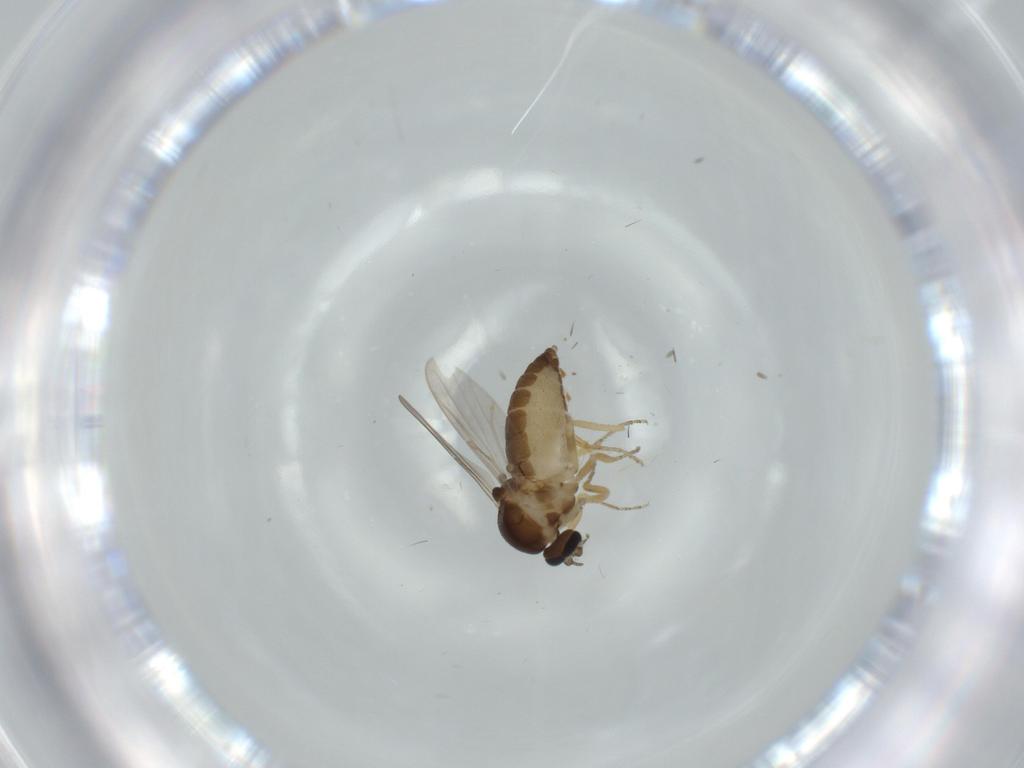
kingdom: Animalia
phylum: Arthropoda
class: Insecta
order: Diptera
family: Ceratopogonidae
